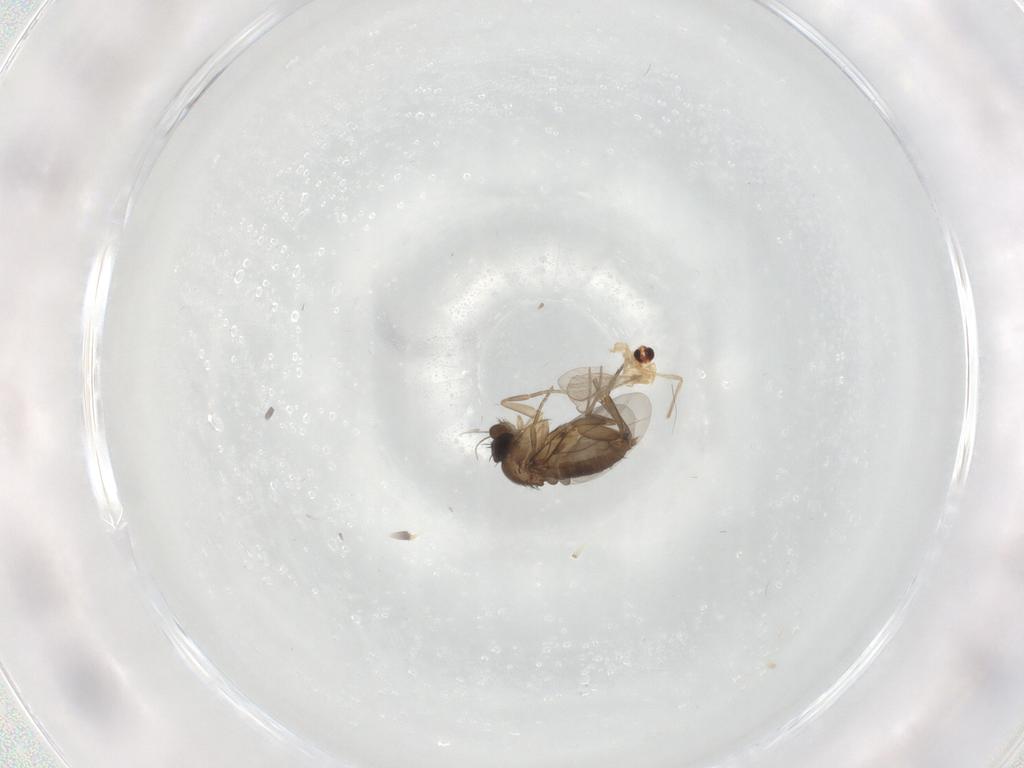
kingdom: Animalia
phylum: Arthropoda
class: Insecta
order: Diptera
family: Phoridae
